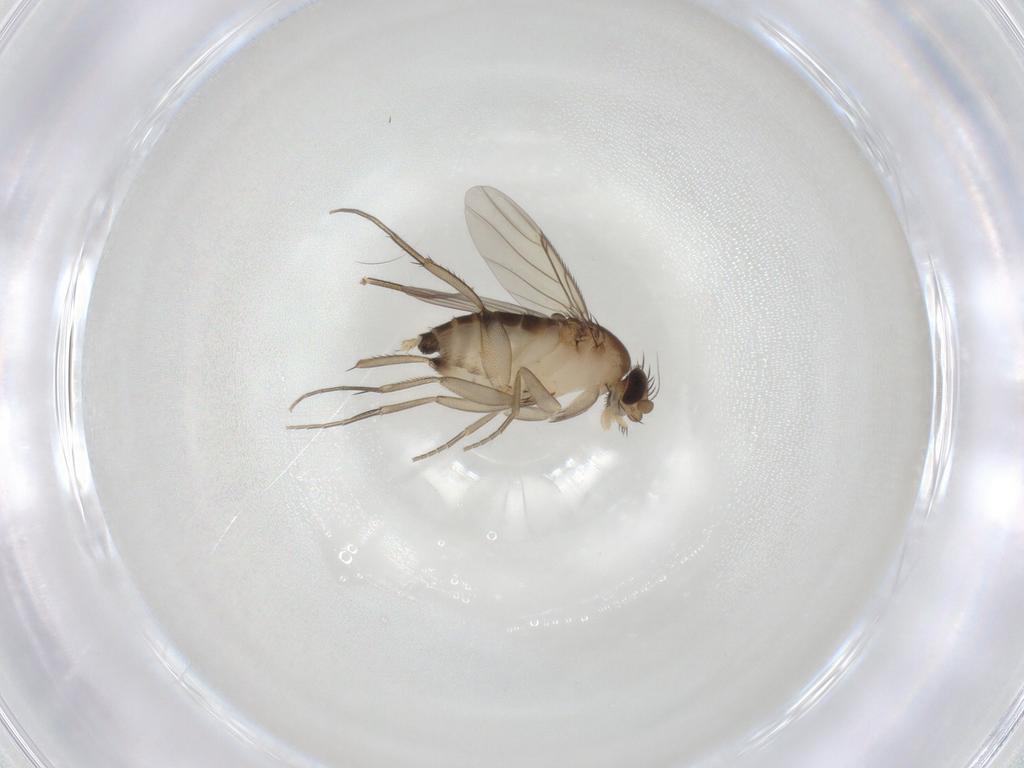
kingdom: Animalia
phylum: Arthropoda
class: Insecta
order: Diptera
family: Phoridae
